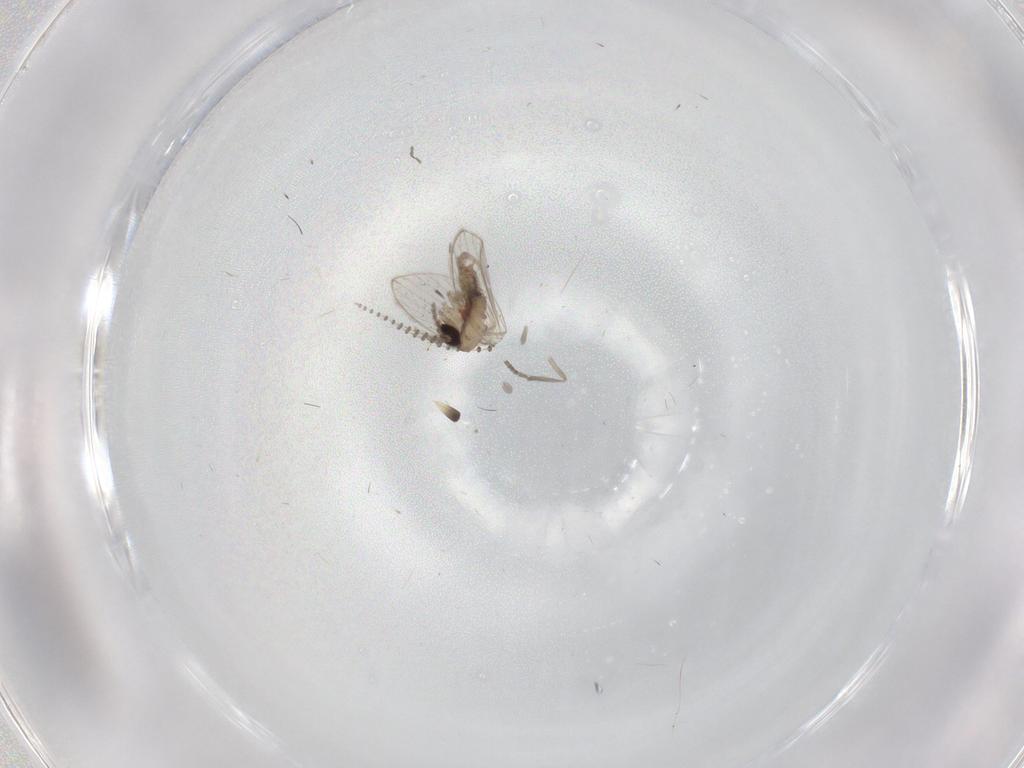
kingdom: Animalia
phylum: Arthropoda
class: Insecta
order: Diptera
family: Psychodidae
